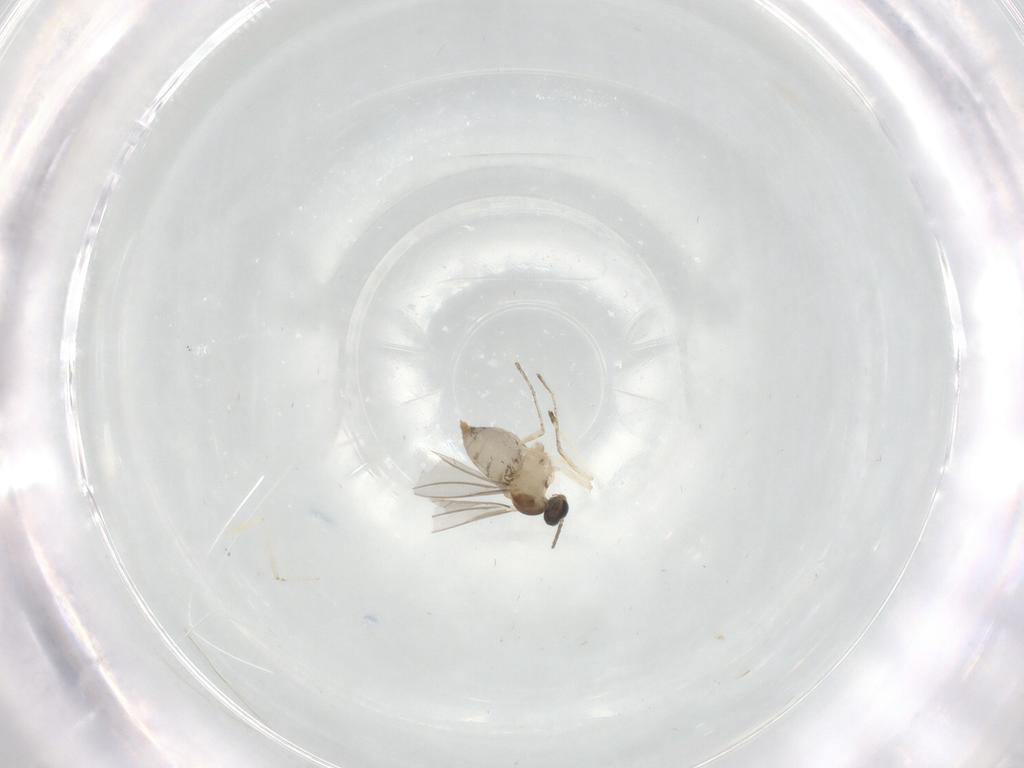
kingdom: Animalia
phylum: Arthropoda
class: Insecta
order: Diptera
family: Cecidomyiidae
